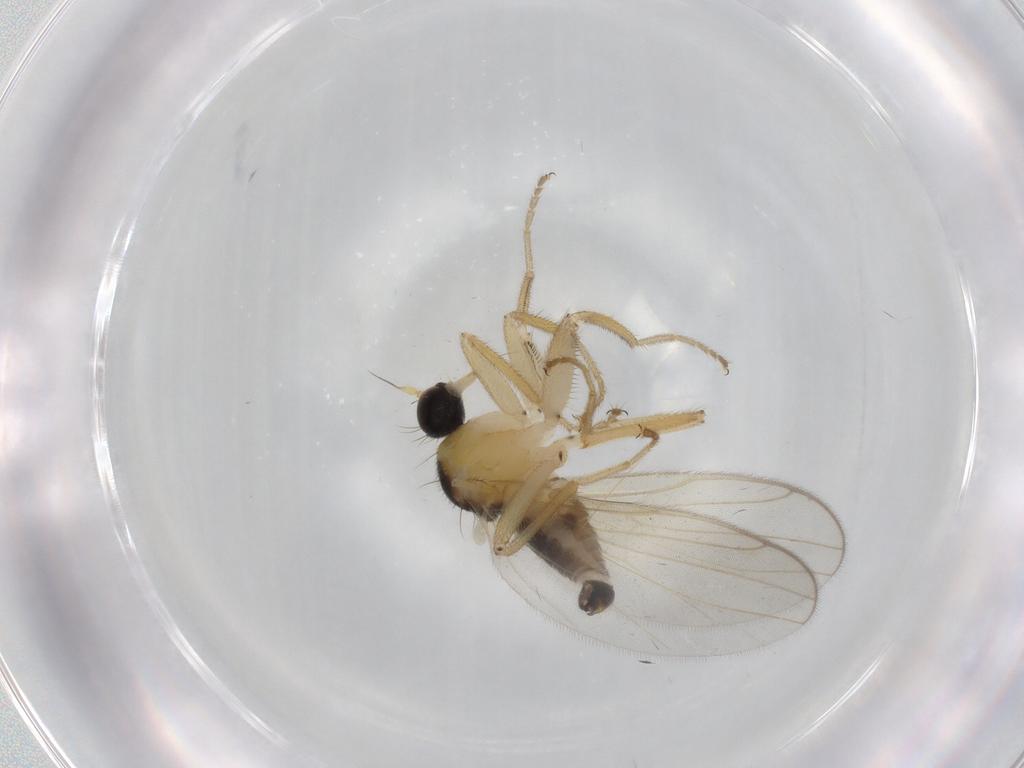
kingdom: Animalia
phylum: Arthropoda
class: Insecta
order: Diptera
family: Hybotidae
